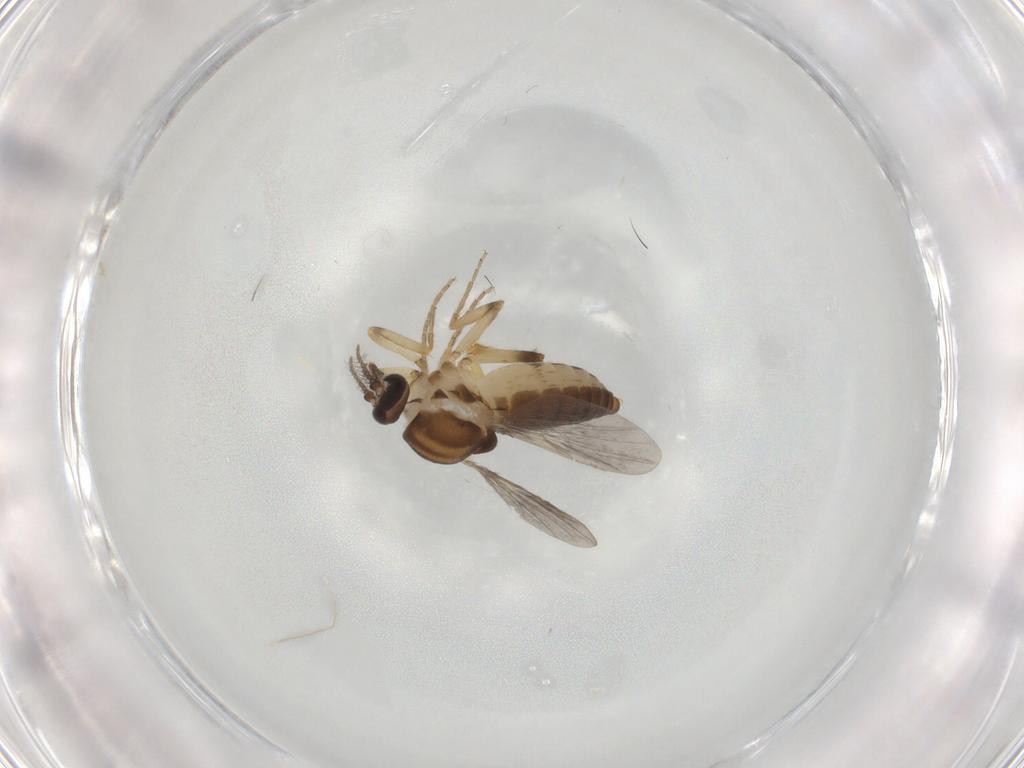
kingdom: Animalia
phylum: Arthropoda
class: Insecta
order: Diptera
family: Ceratopogonidae
